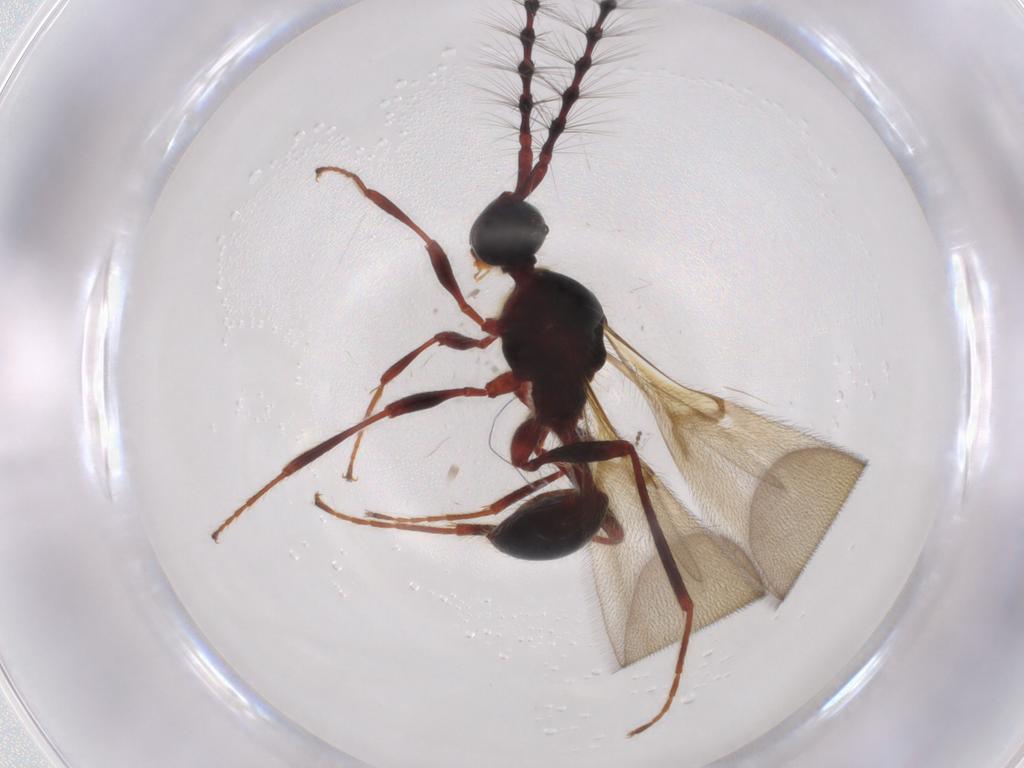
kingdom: Animalia
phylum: Arthropoda
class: Insecta
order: Hymenoptera
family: Diapriidae
